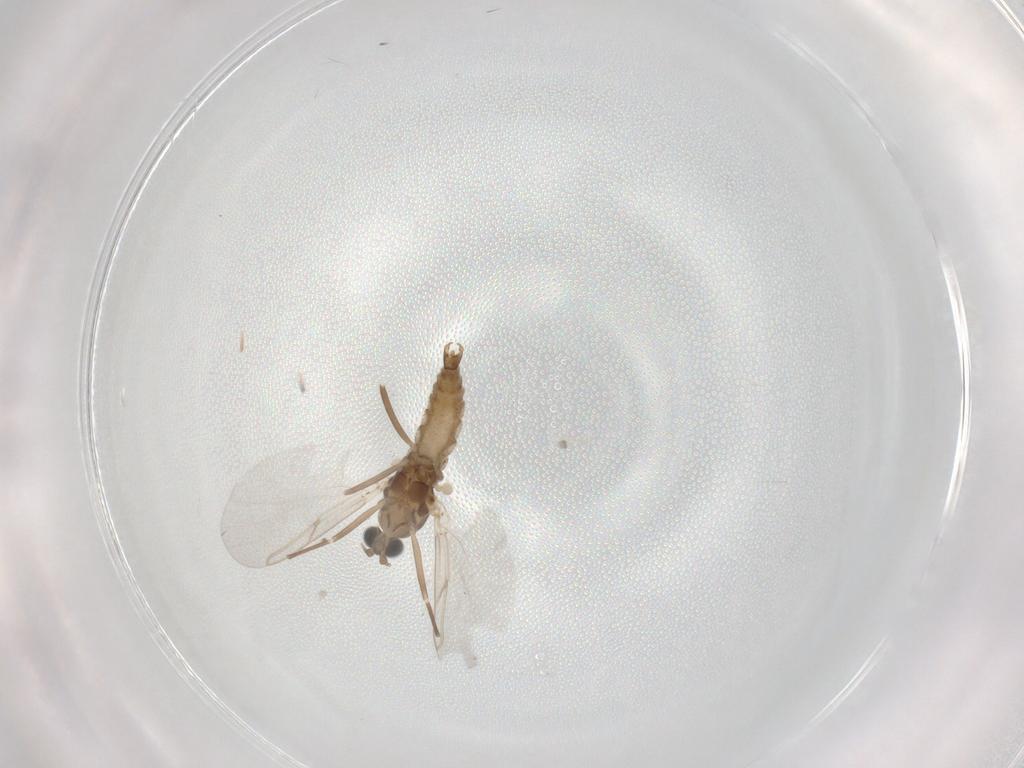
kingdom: Animalia
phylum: Arthropoda
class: Insecta
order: Diptera
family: Cecidomyiidae
